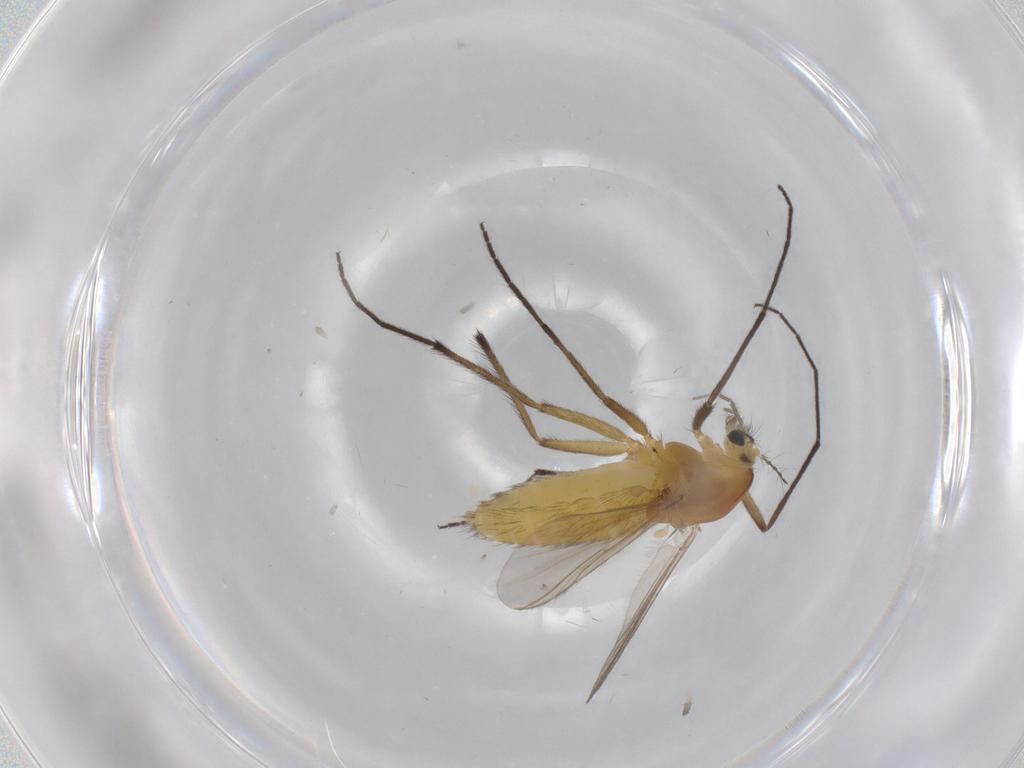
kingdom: Animalia
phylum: Arthropoda
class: Insecta
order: Diptera
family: Chironomidae
